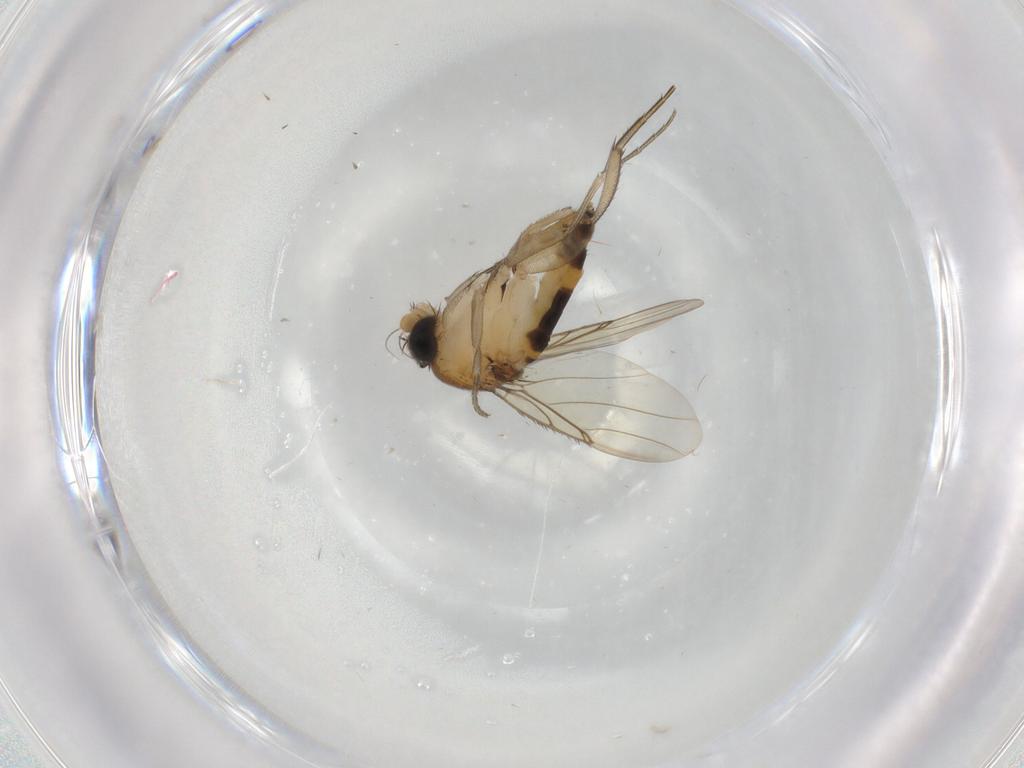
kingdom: Animalia
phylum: Arthropoda
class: Insecta
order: Diptera
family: Phoridae
